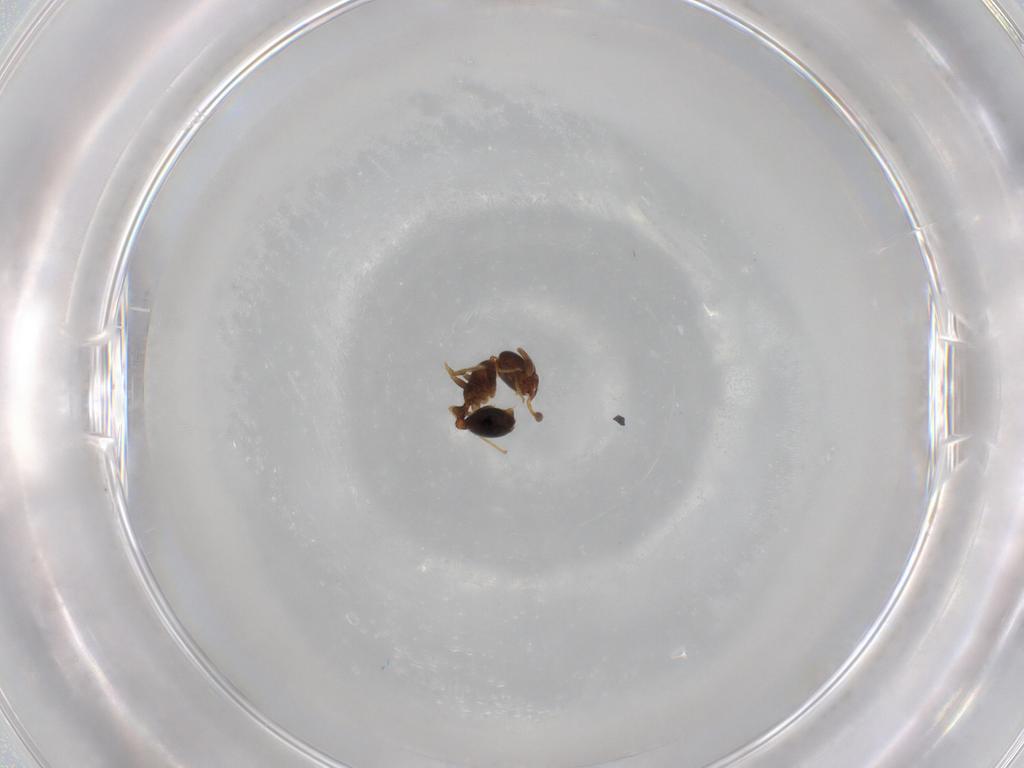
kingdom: Animalia
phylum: Arthropoda
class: Insecta
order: Hymenoptera
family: Formicidae
